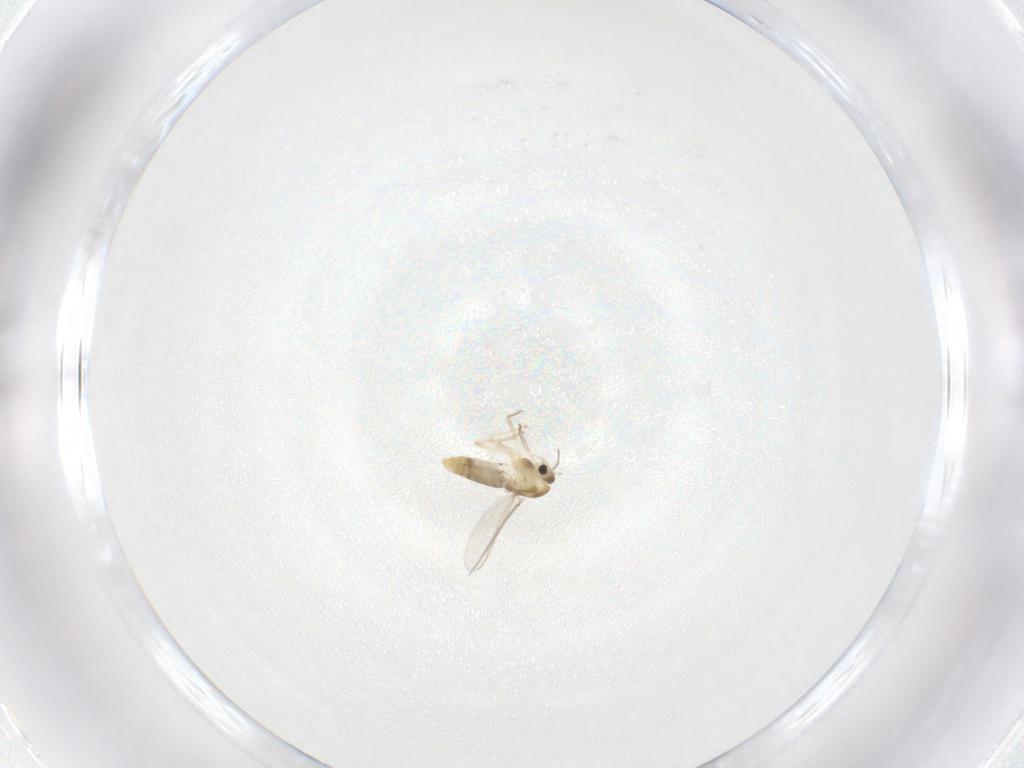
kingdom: Animalia
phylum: Arthropoda
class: Insecta
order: Diptera
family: Chironomidae
